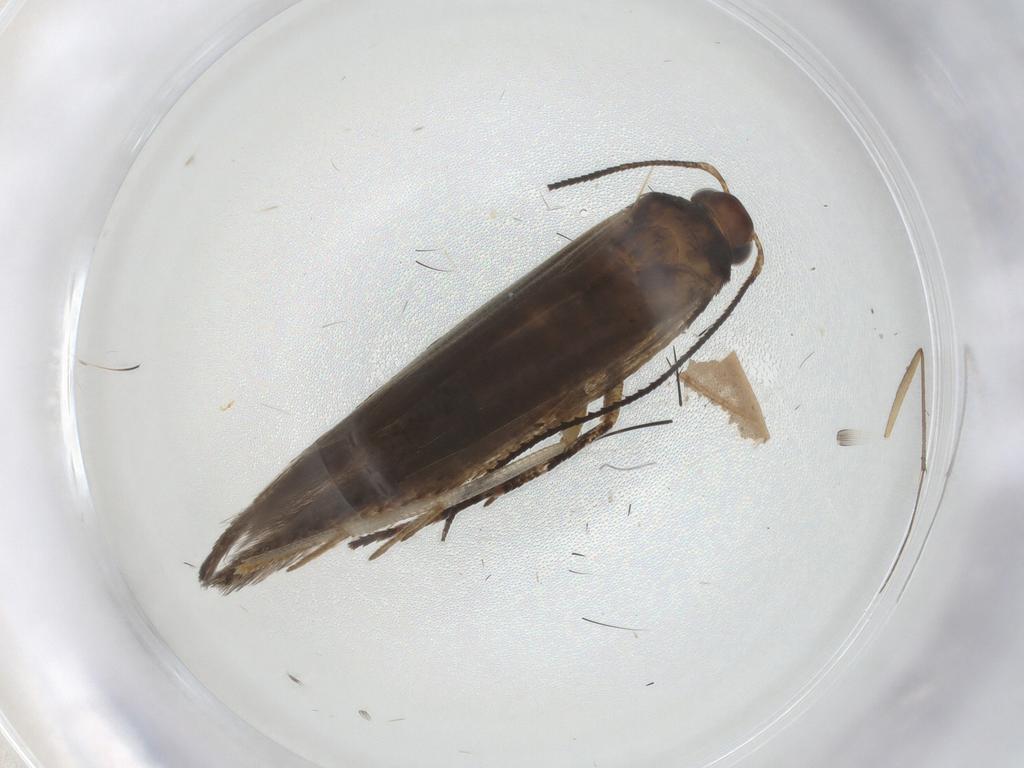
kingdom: Animalia
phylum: Arthropoda
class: Insecta
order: Lepidoptera
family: Gelechiidae
